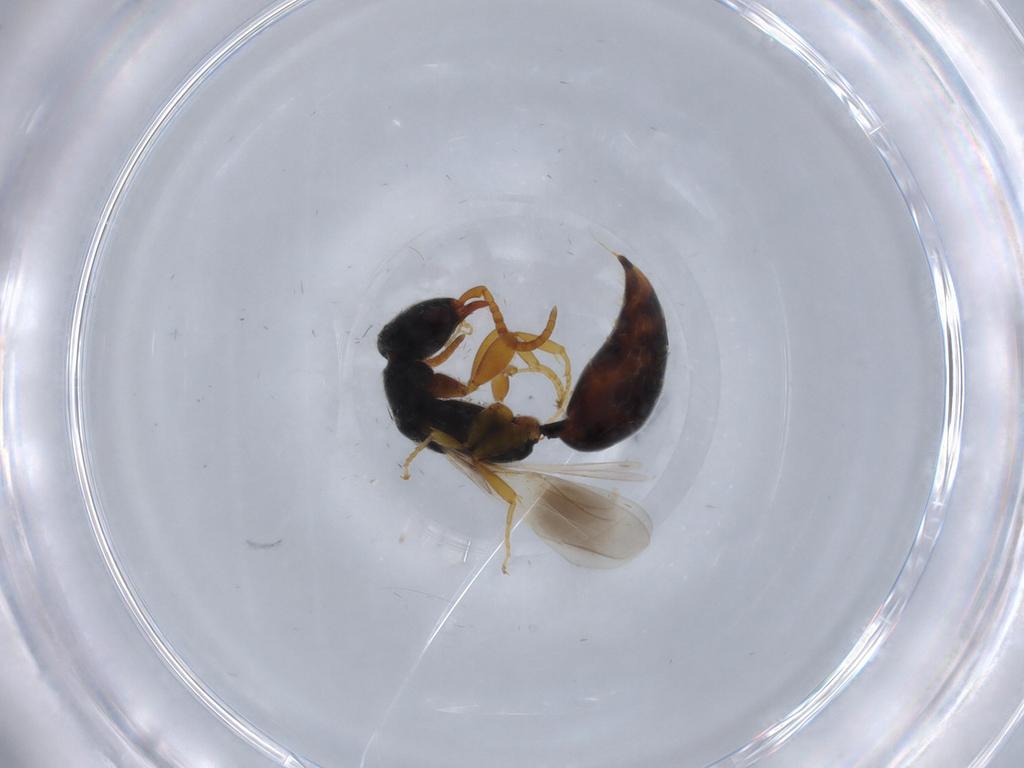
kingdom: Animalia
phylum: Arthropoda
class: Insecta
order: Hymenoptera
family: Bethylidae
